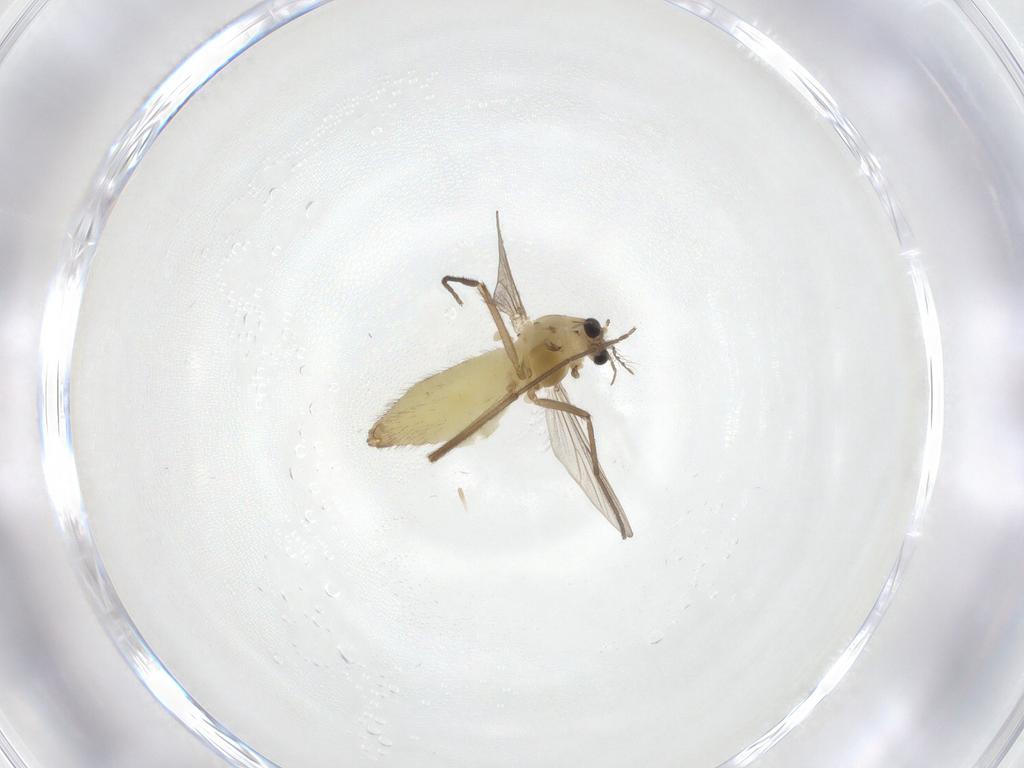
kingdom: Animalia
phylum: Arthropoda
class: Insecta
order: Diptera
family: Chironomidae
